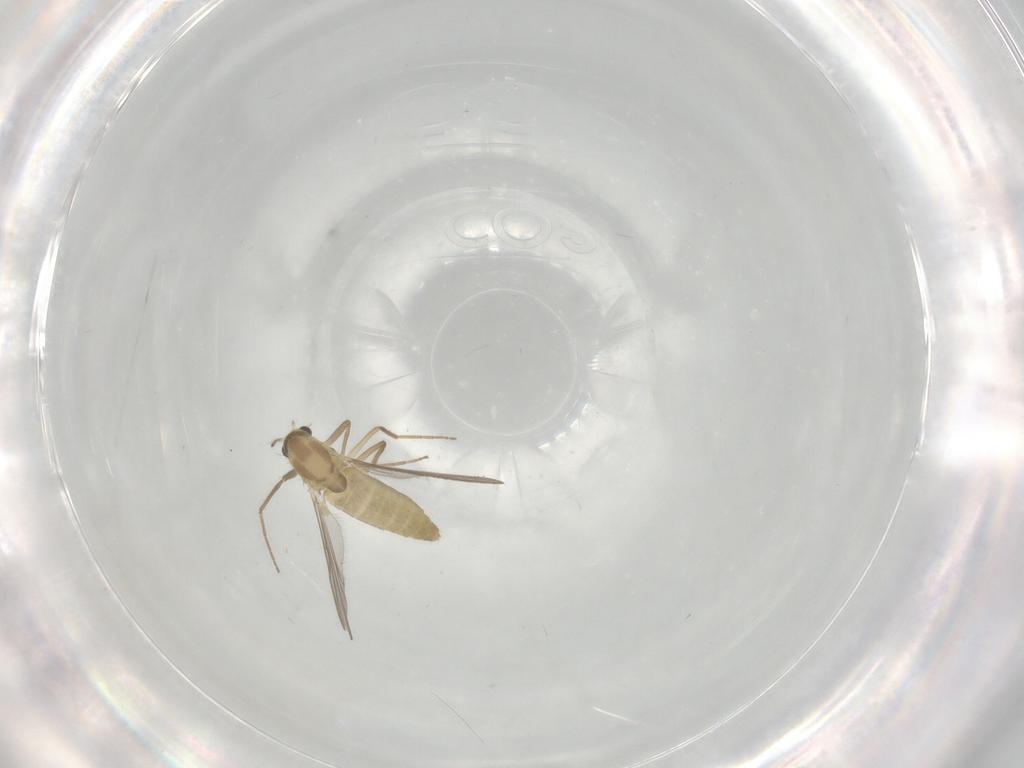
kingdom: Animalia
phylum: Arthropoda
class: Insecta
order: Diptera
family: Chironomidae
